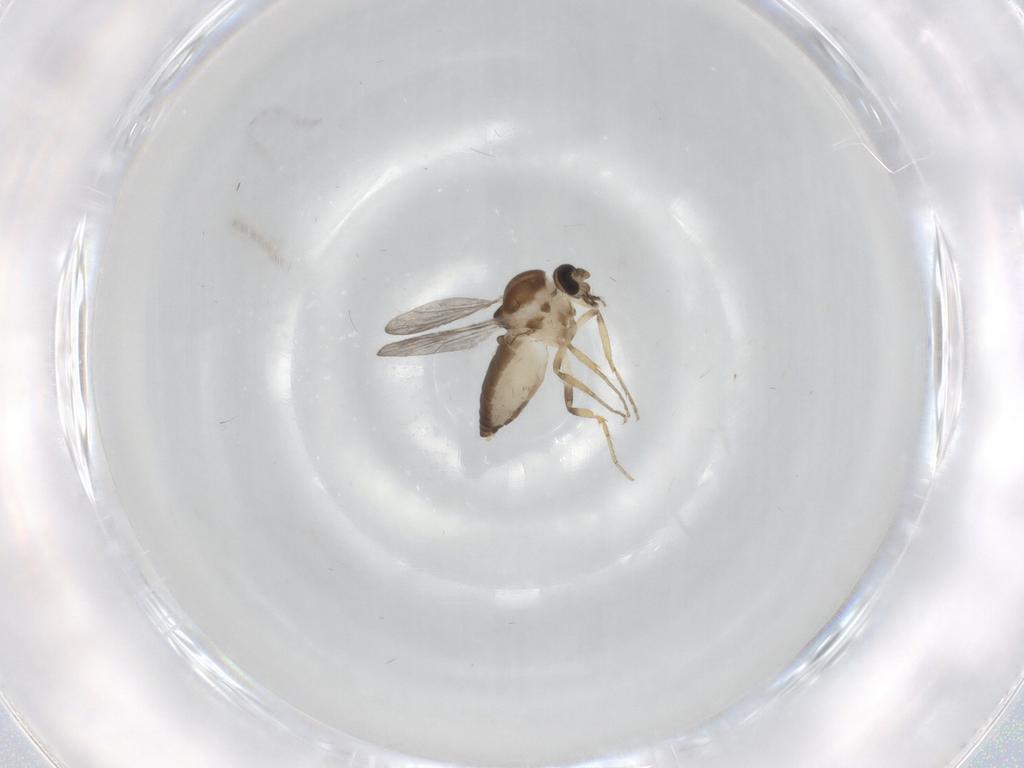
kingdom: Animalia
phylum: Arthropoda
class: Insecta
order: Diptera
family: Ceratopogonidae
